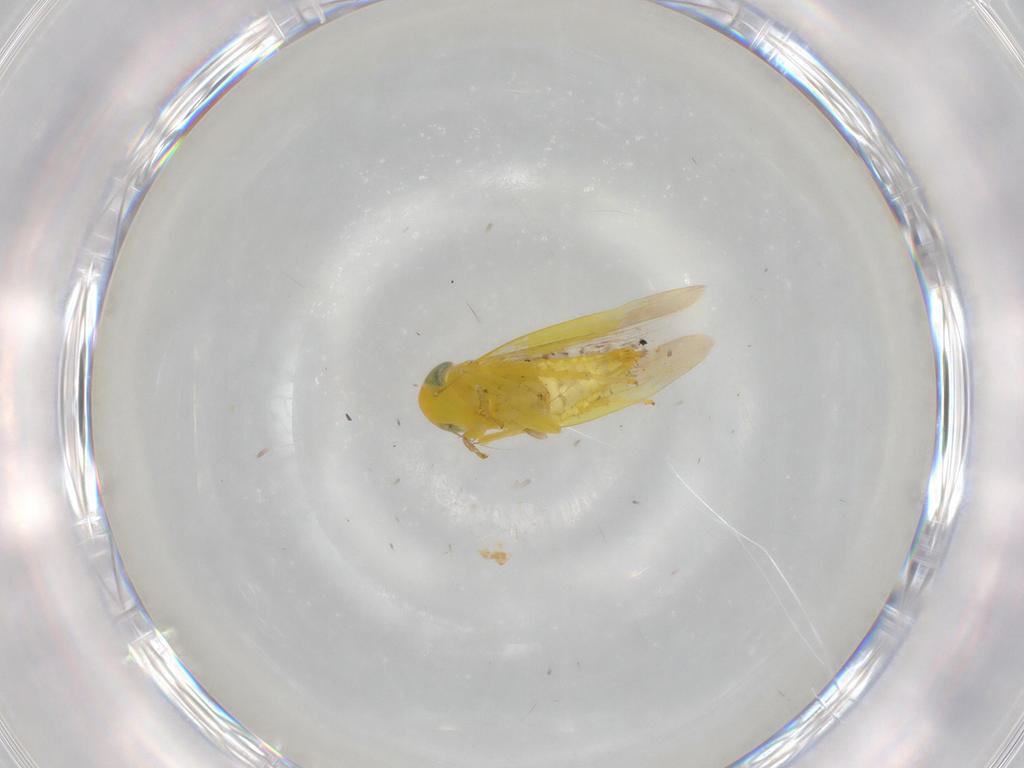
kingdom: Animalia
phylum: Arthropoda
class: Insecta
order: Hemiptera
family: Cicadellidae
